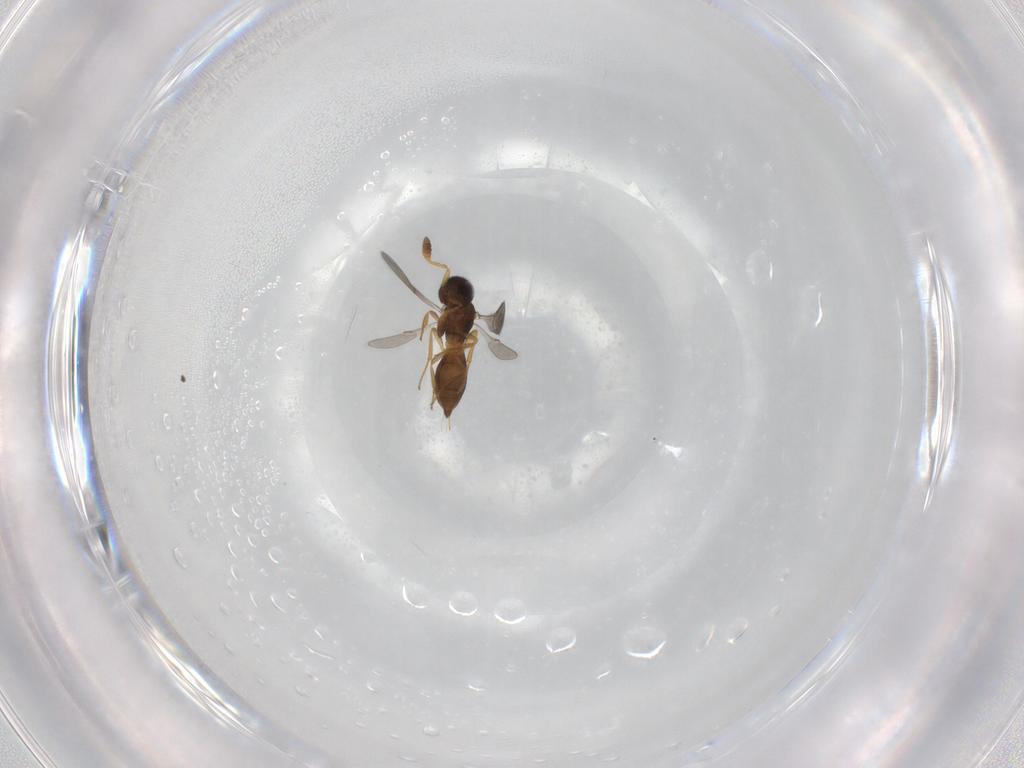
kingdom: Animalia
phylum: Arthropoda
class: Insecta
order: Hymenoptera
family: Scelionidae
